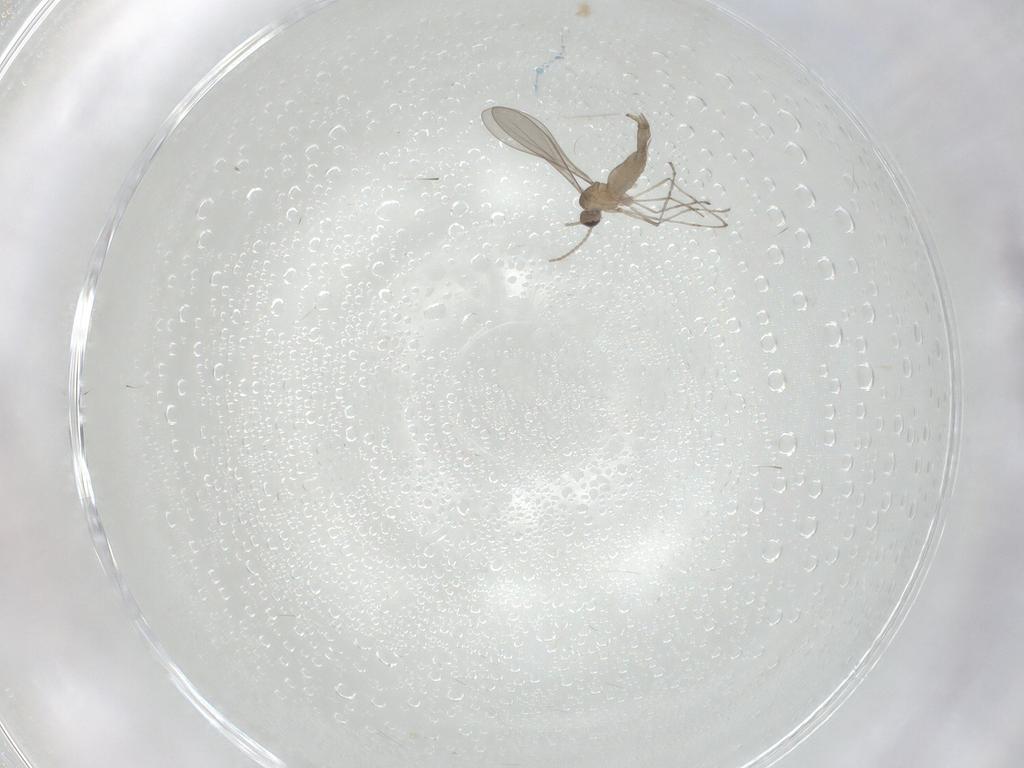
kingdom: Animalia
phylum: Arthropoda
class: Insecta
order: Diptera
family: Cecidomyiidae
